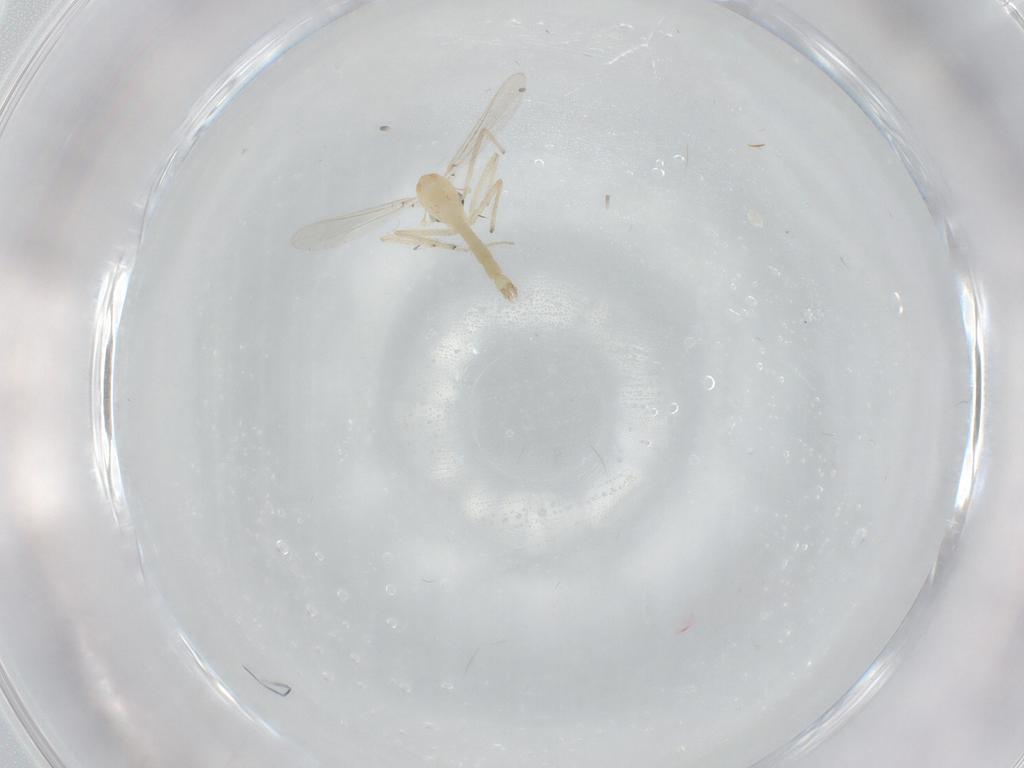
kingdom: Animalia
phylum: Arthropoda
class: Insecta
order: Diptera
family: Chironomidae
